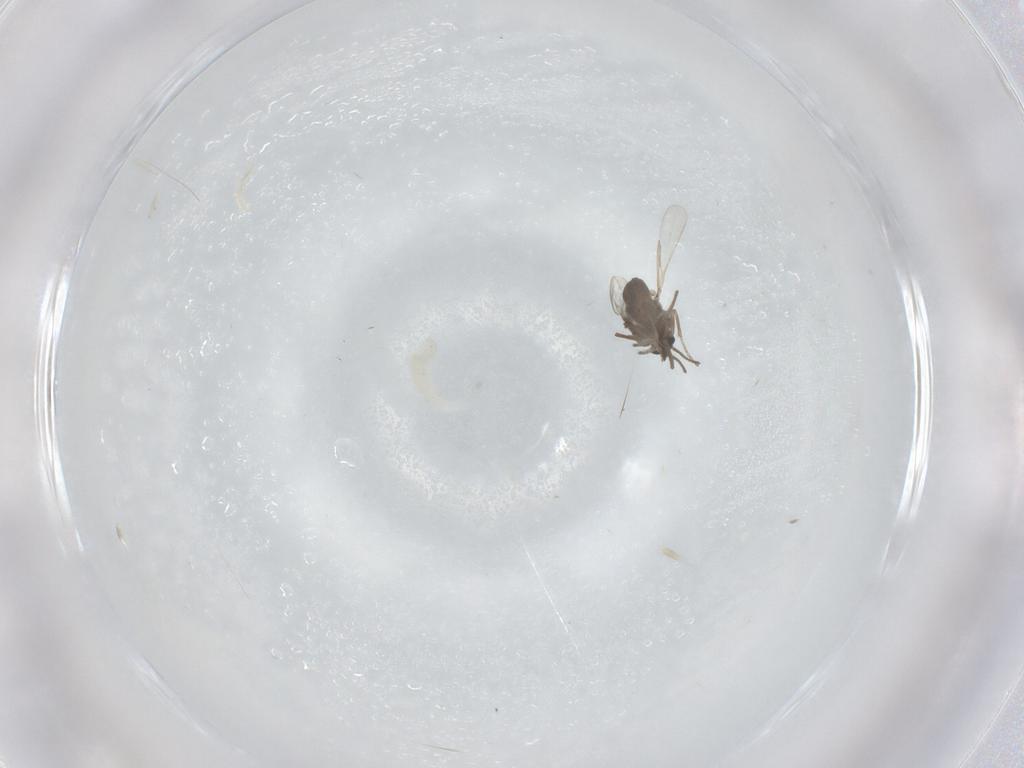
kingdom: Animalia
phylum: Arthropoda
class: Insecta
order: Diptera
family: Ceratopogonidae
